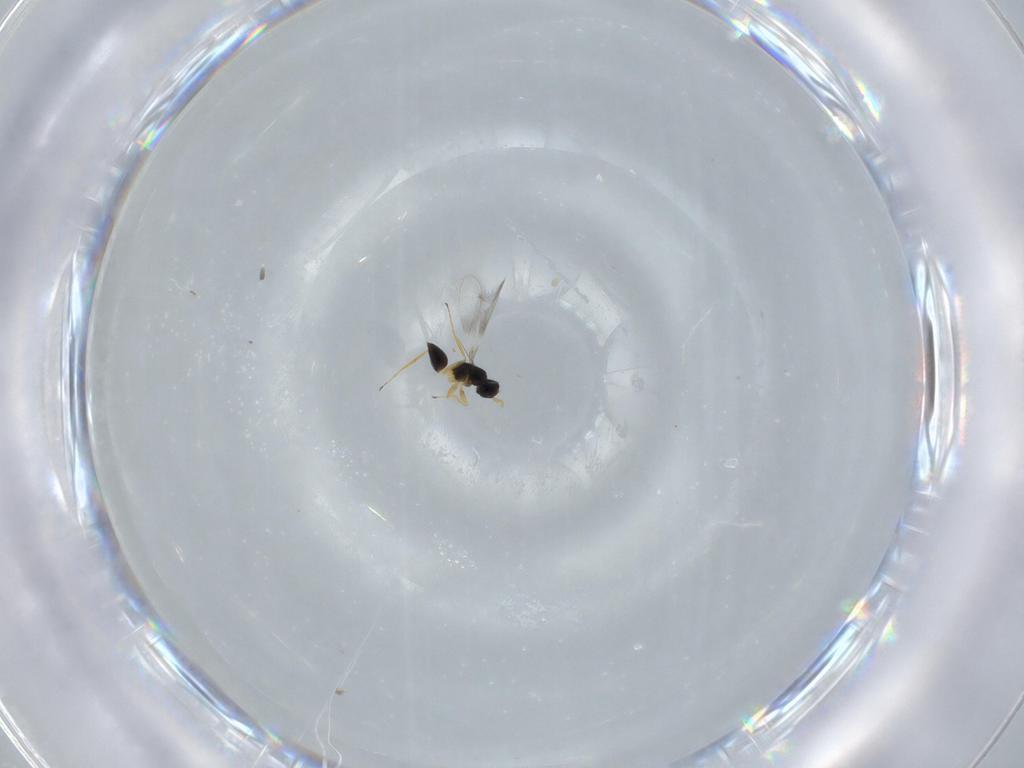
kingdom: Animalia
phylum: Arthropoda
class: Insecta
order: Hymenoptera
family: Mymaridae
